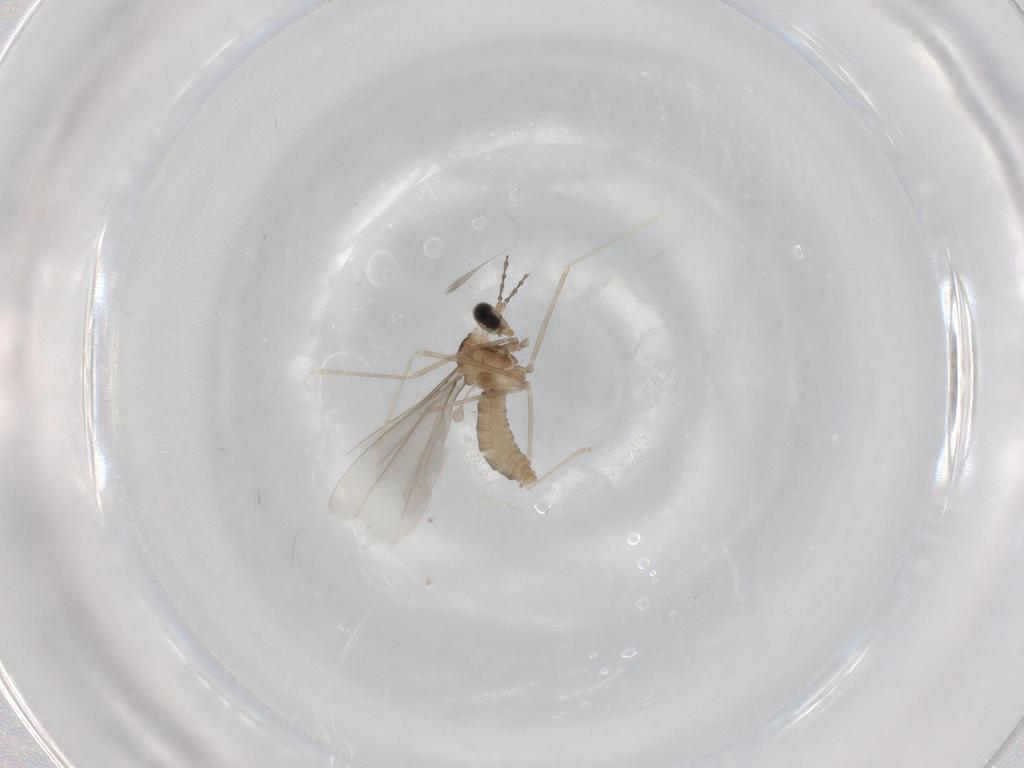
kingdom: Animalia
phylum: Arthropoda
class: Insecta
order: Diptera
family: Cecidomyiidae
